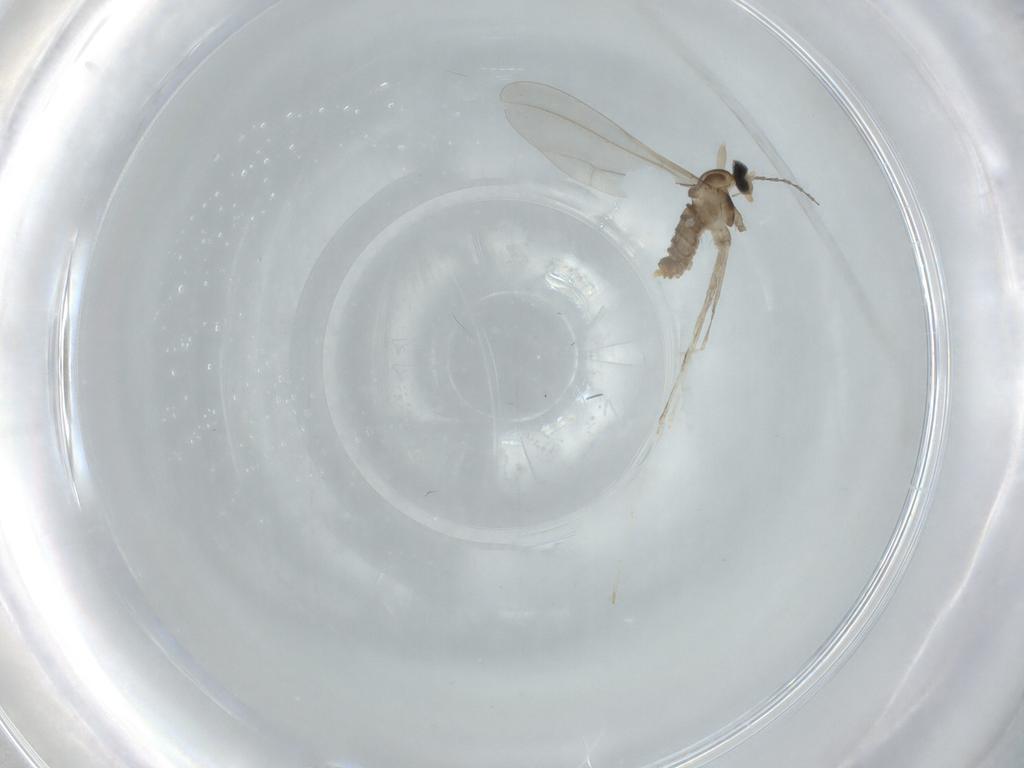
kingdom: Animalia
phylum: Arthropoda
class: Insecta
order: Diptera
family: Cecidomyiidae
